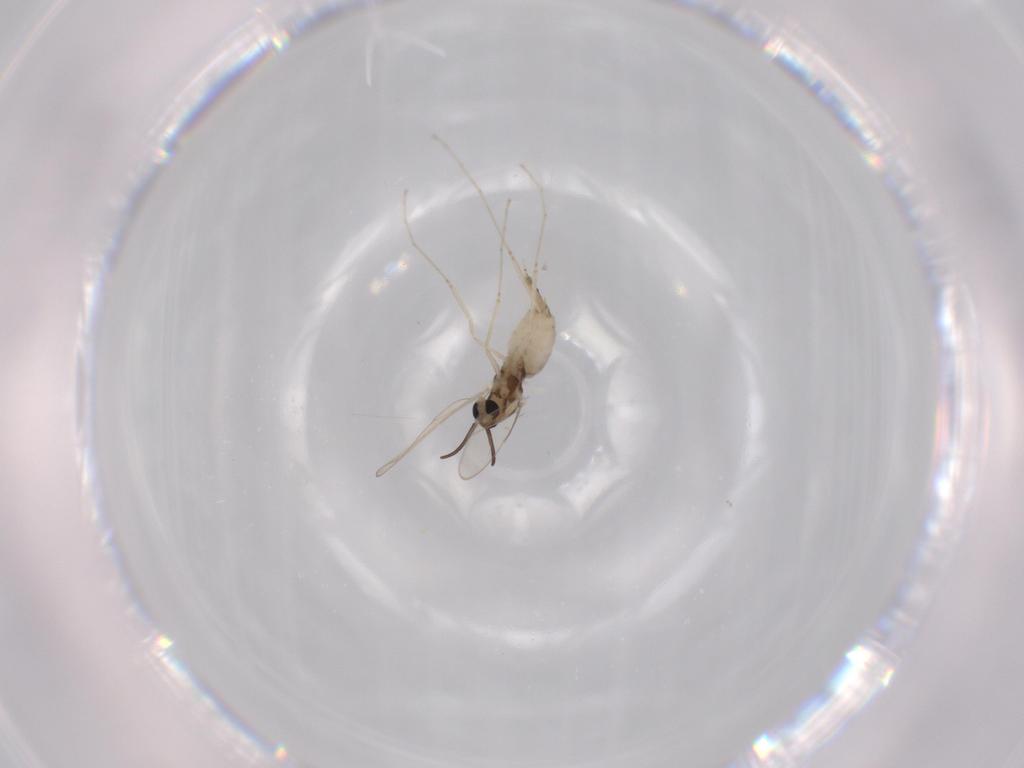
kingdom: Animalia
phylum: Arthropoda
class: Insecta
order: Diptera
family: Cecidomyiidae
